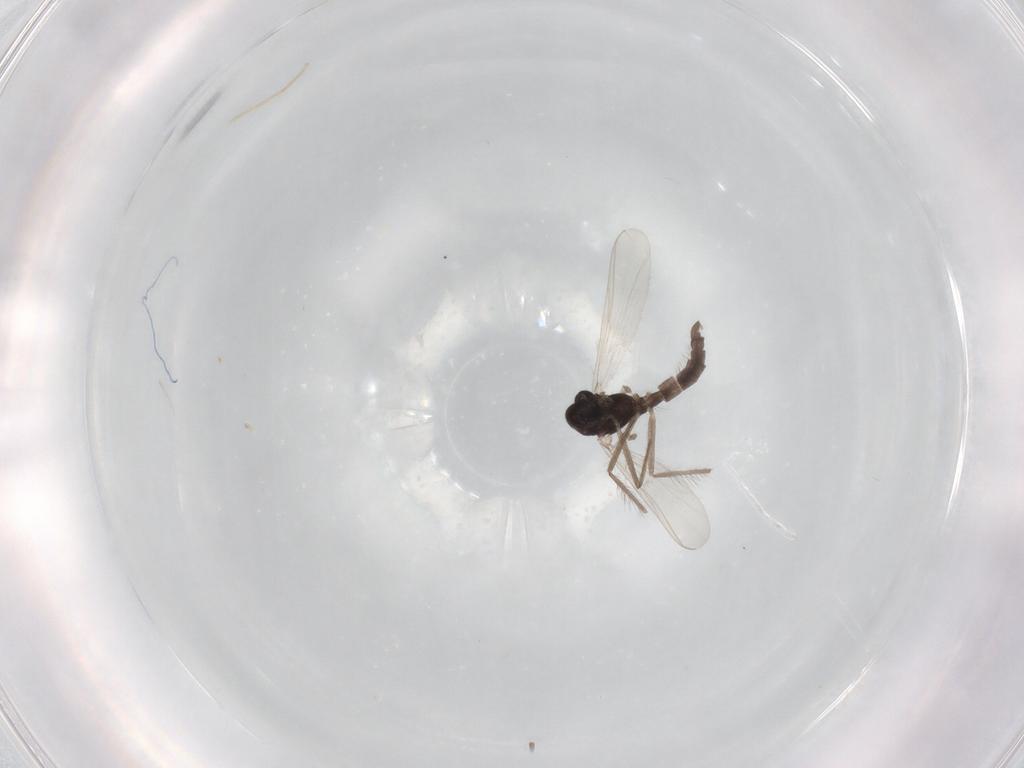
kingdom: Animalia
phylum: Arthropoda
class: Insecta
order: Diptera
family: Chironomidae
